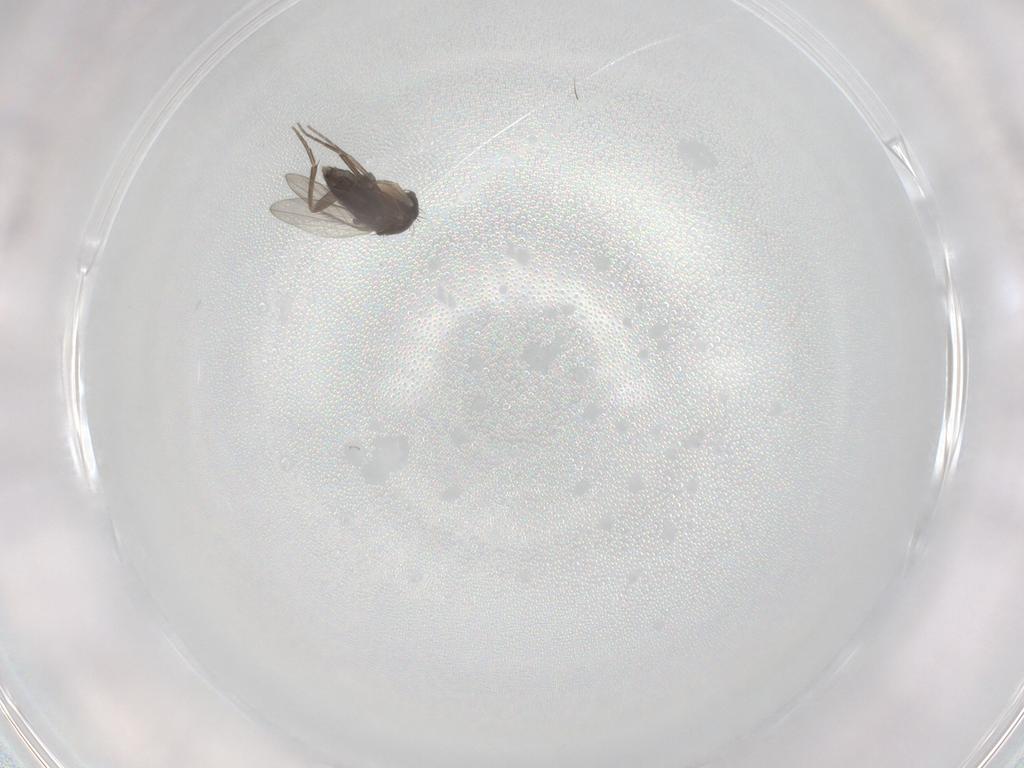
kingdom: Animalia
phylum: Arthropoda
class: Insecta
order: Diptera
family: Phoridae
